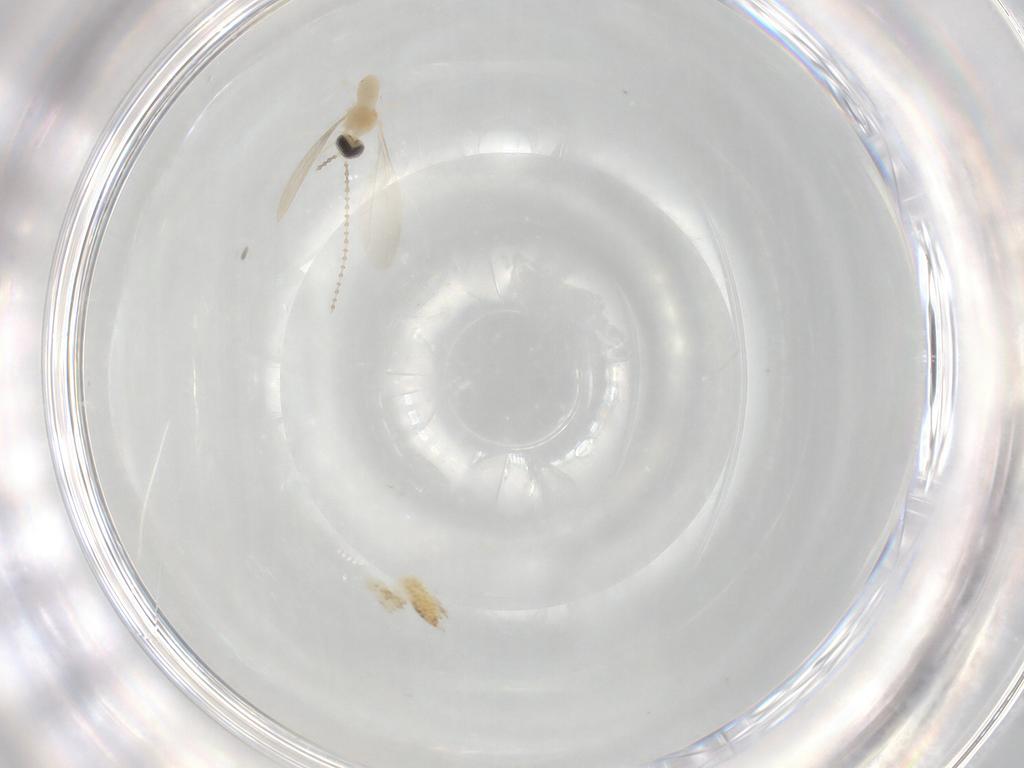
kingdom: Animalia
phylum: Arthropoda
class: Insecta
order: Diptera
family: Cecidomyiidae
